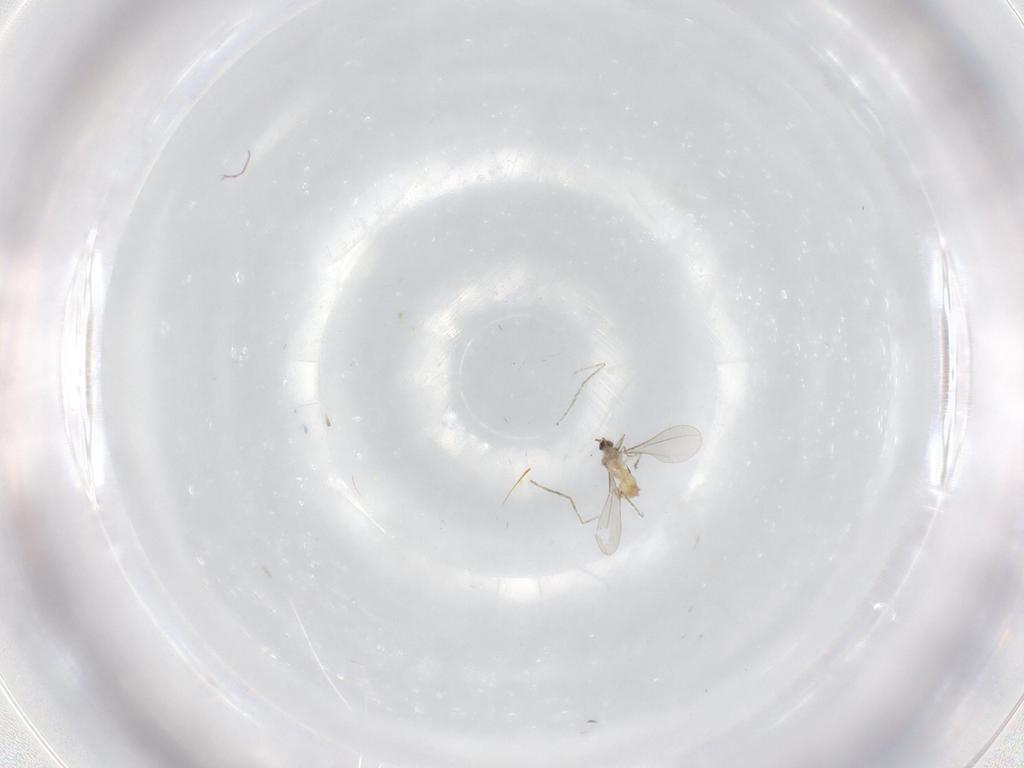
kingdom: Animalia
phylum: Arthropoda
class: Insecta
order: Diptera
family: Cecidomyiidae
